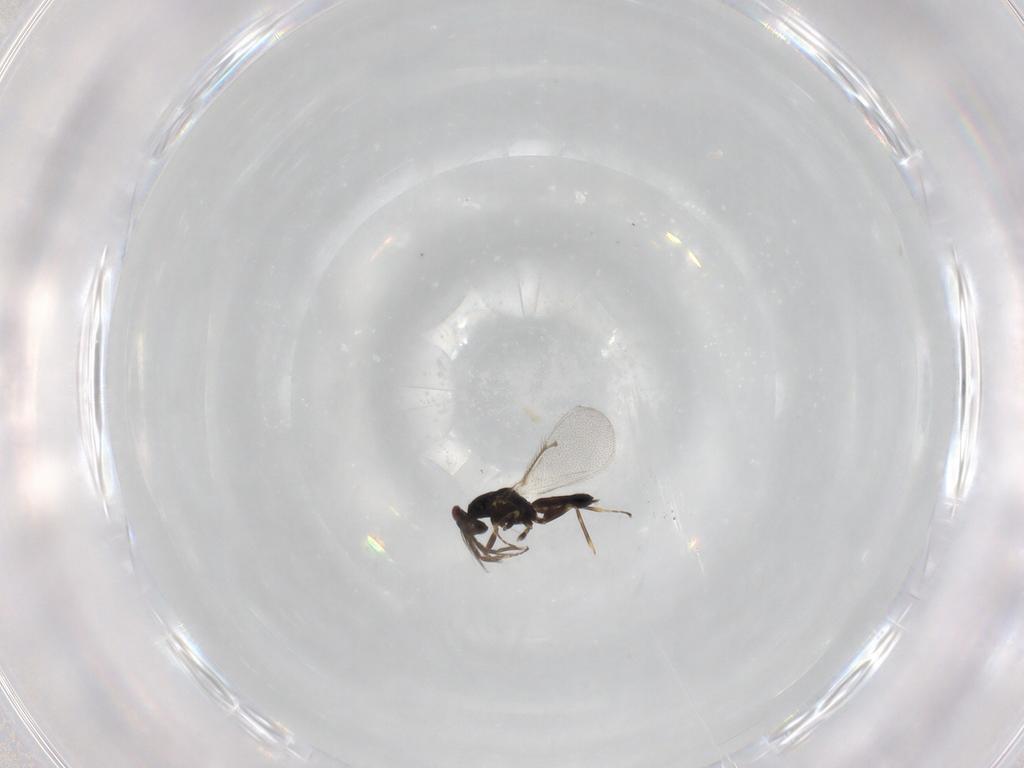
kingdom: Animalia
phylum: Arthropoda
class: Insecta
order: Hymenoptera
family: Eulophidae
